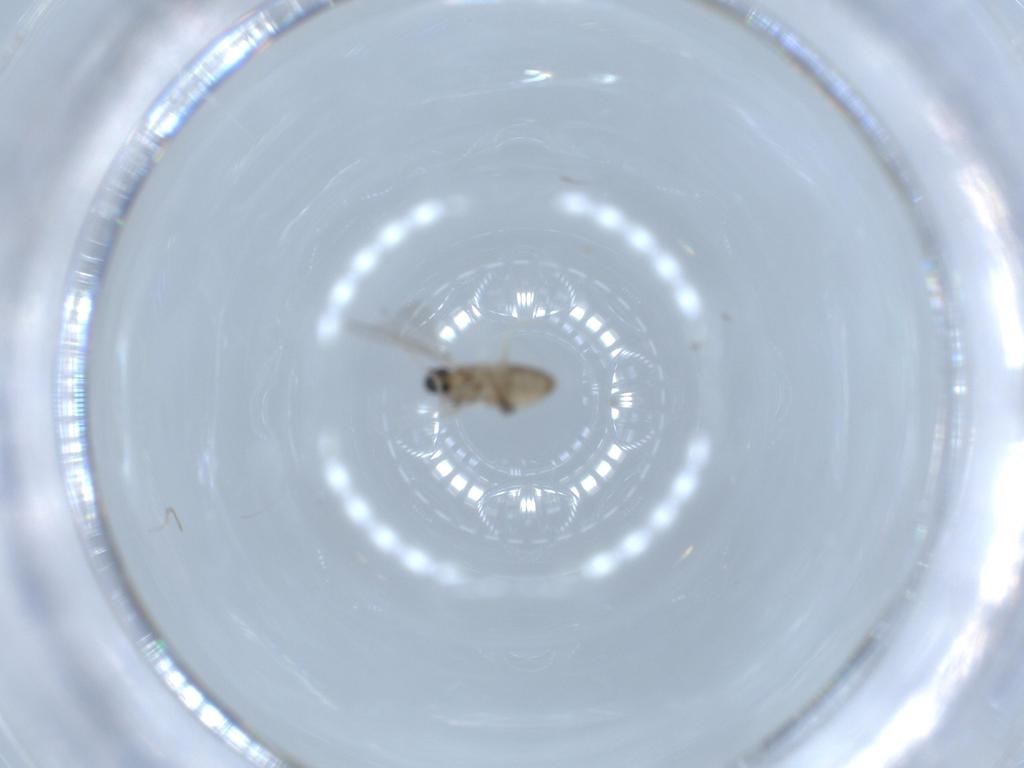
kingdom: Animalia
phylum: Arthropoda
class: Insecta
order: Diptera
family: Cecidomyiidae
